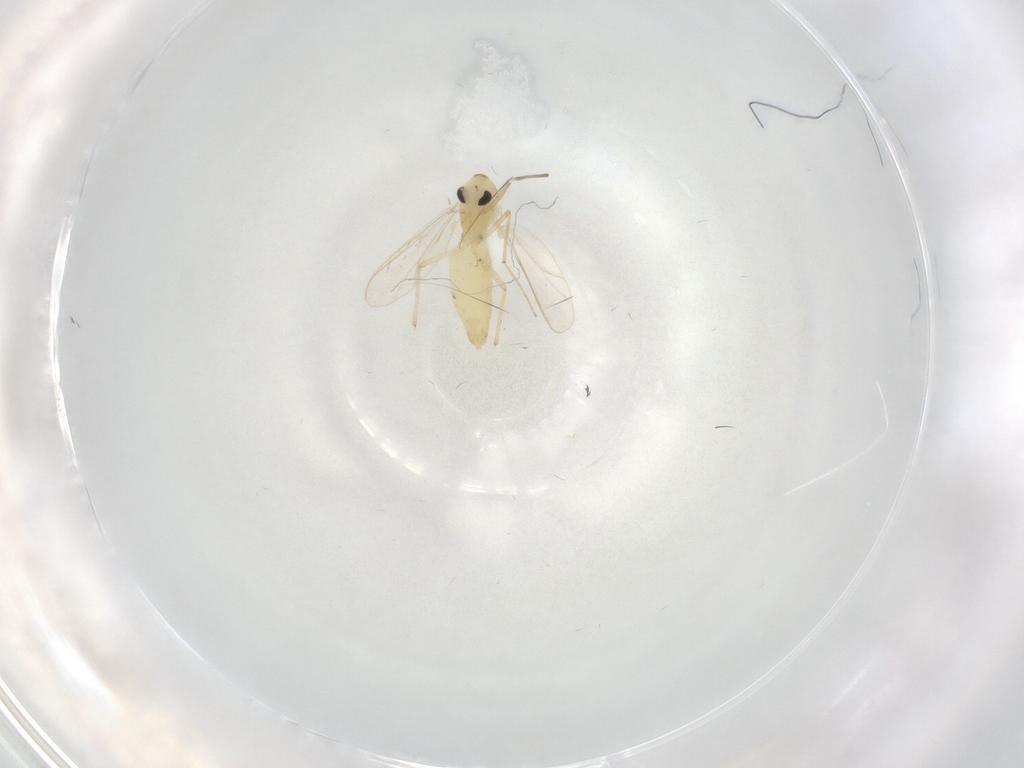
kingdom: Animalia
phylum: Arthropoda
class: Insecta
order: Diptera
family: Chironomidae
